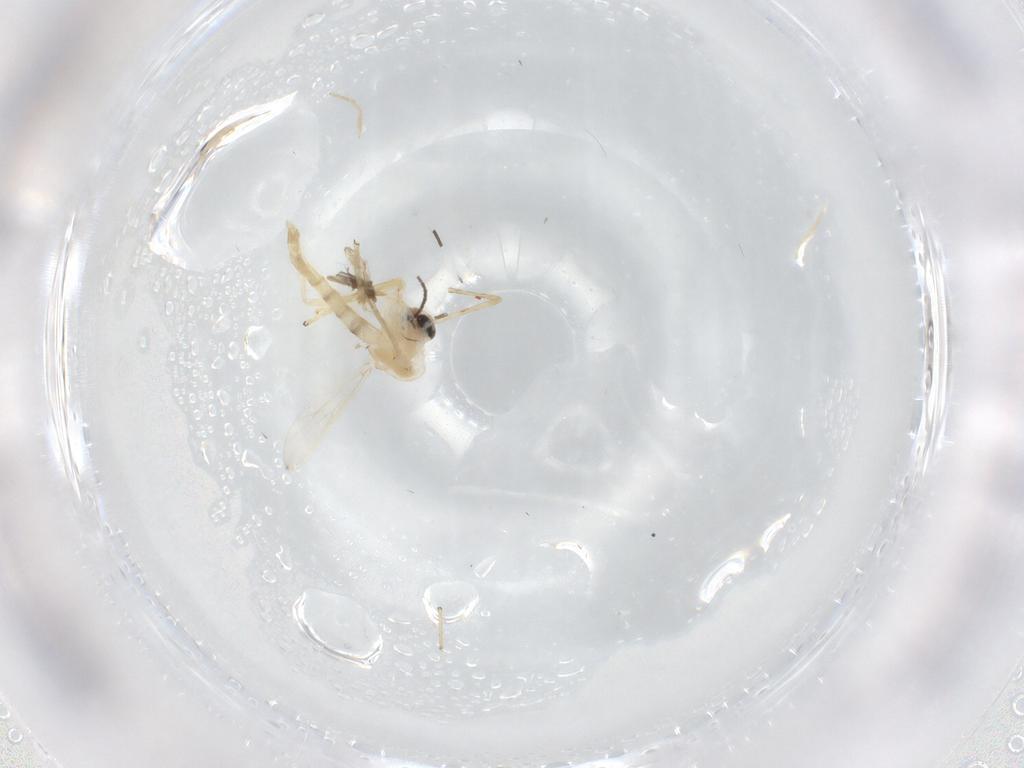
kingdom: Animalia
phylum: Arthropoda
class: Insecta
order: Diptera
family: Chironomidae
